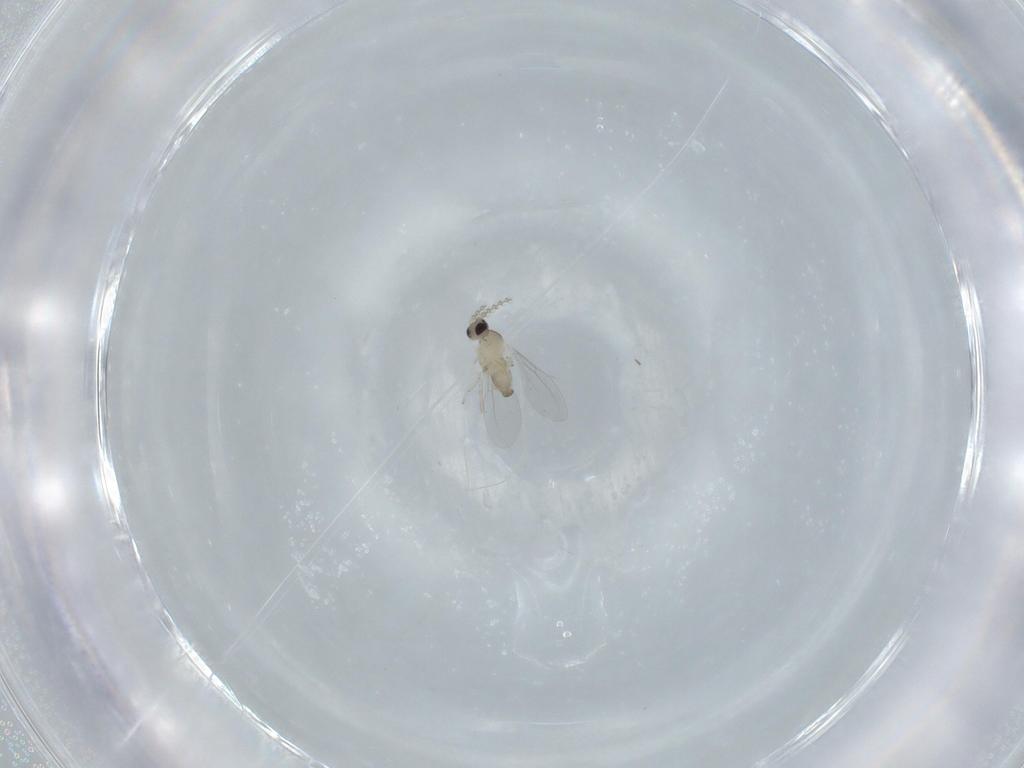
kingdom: Animalia
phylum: Arthropoda
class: Insecta
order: Diptera
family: Cecidomyiidae
